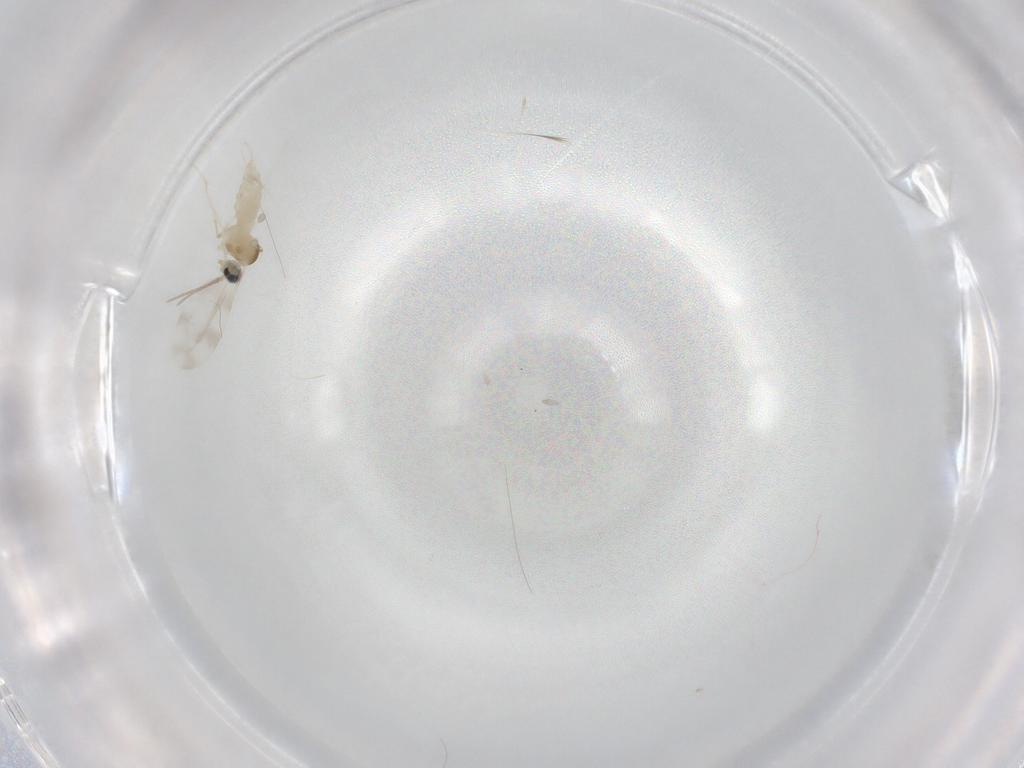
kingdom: Animalia
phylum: Arthropoda
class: Insecta
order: Diptera
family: Cecidomyiidae
